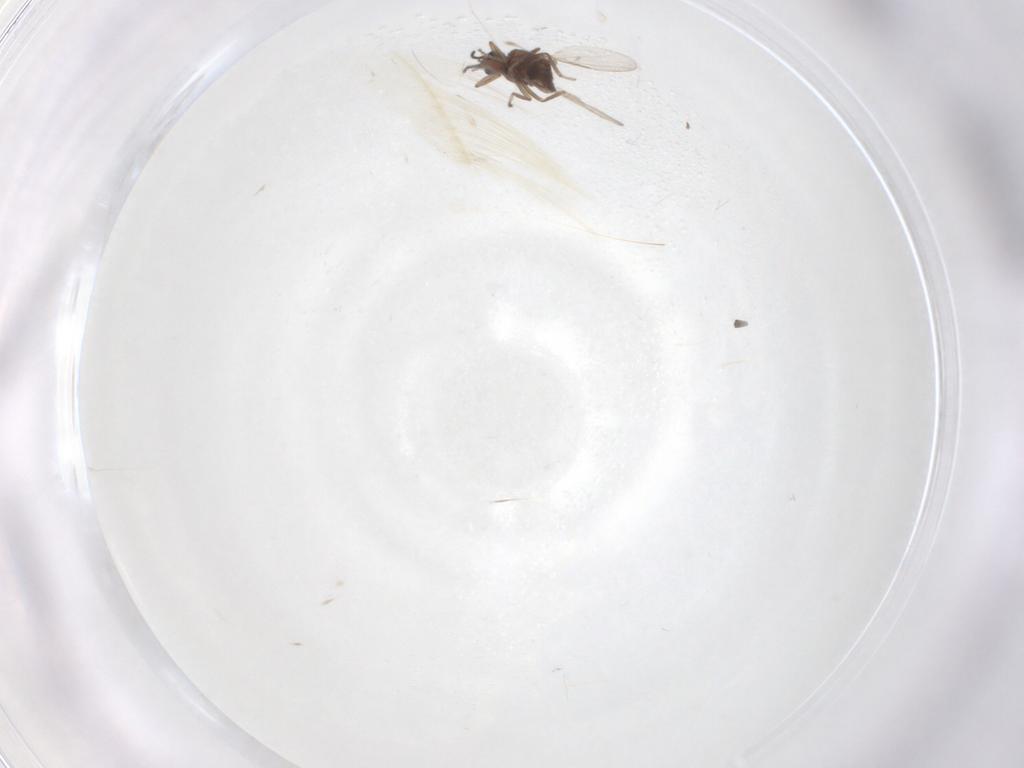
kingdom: Animalia
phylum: Arthropoda
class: Insecta
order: Diptera
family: Ceratopogonidae
